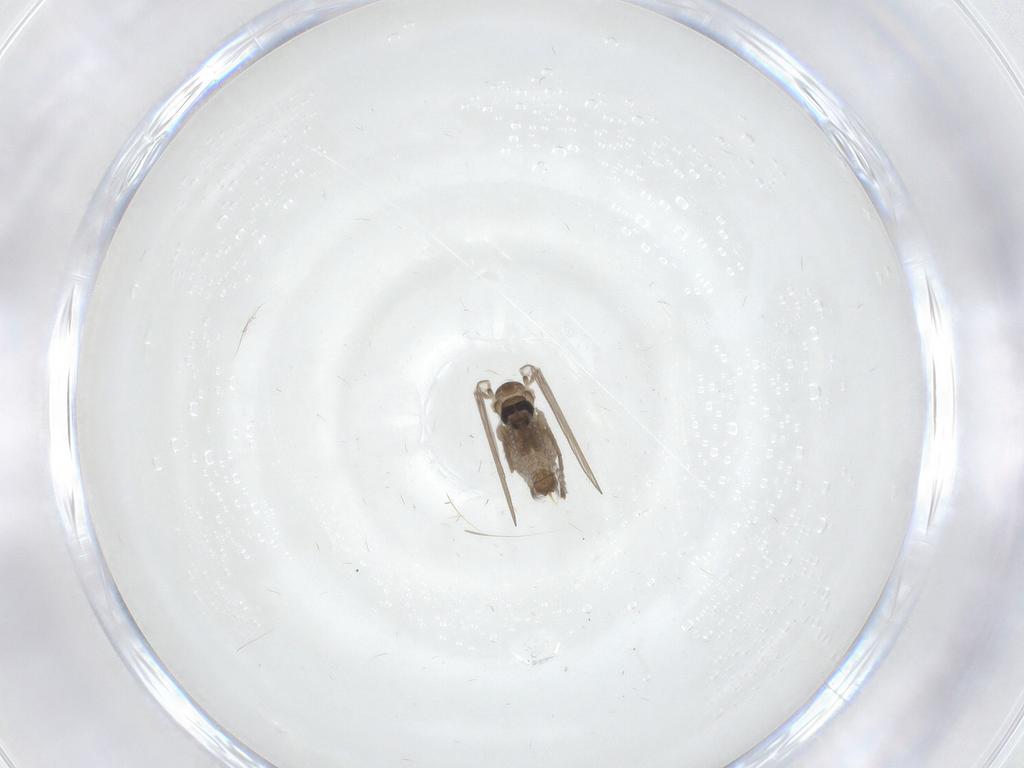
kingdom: Animalia
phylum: Arthropoda
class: Insecta
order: Diptera
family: Psychodidae
